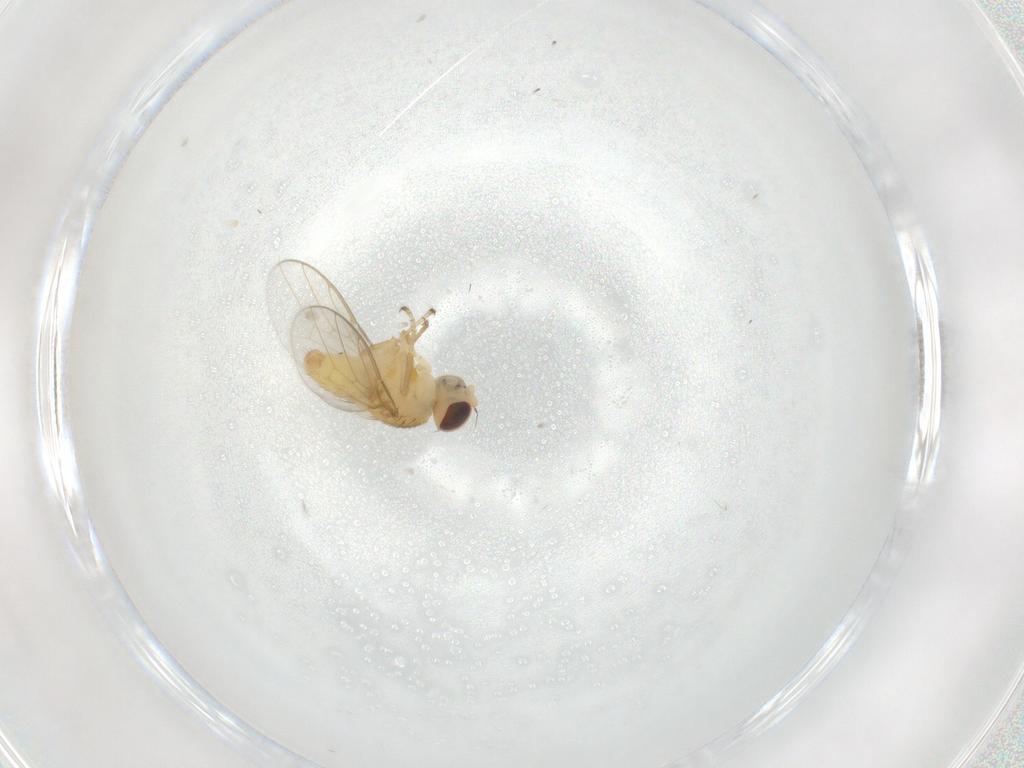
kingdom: Animalia
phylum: Arthropoda
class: Insecta
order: Diptera
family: Chloropidae
